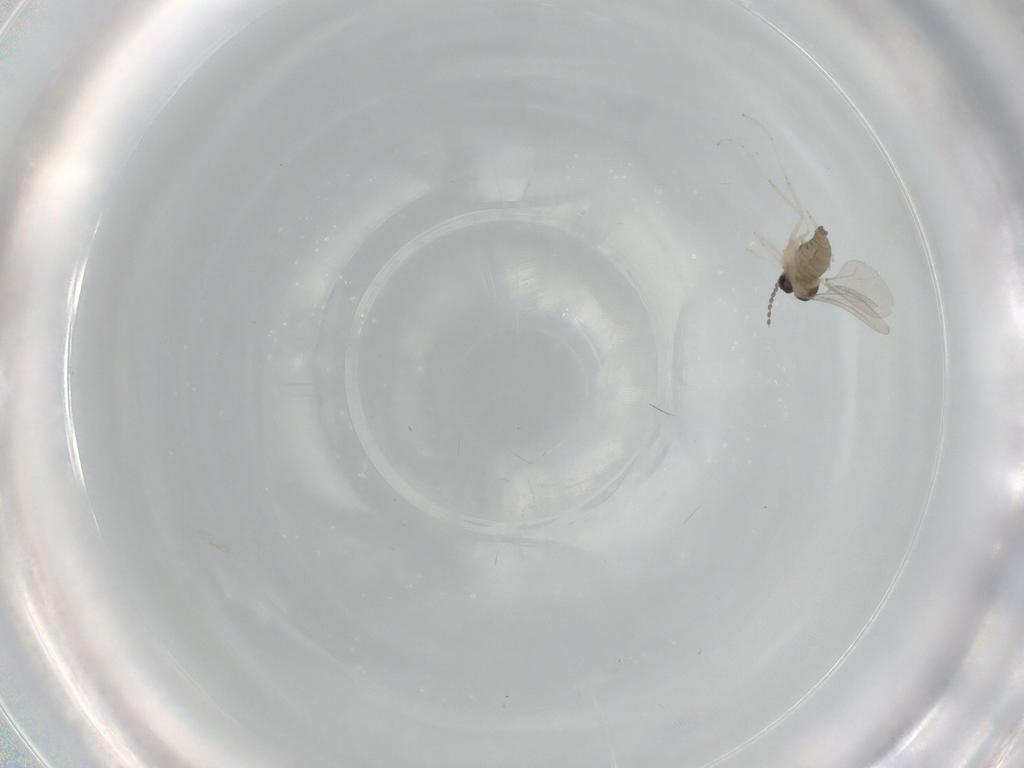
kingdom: Animalia
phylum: Arthropoda
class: Insecta
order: Diptera
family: Cecidomyiidae
